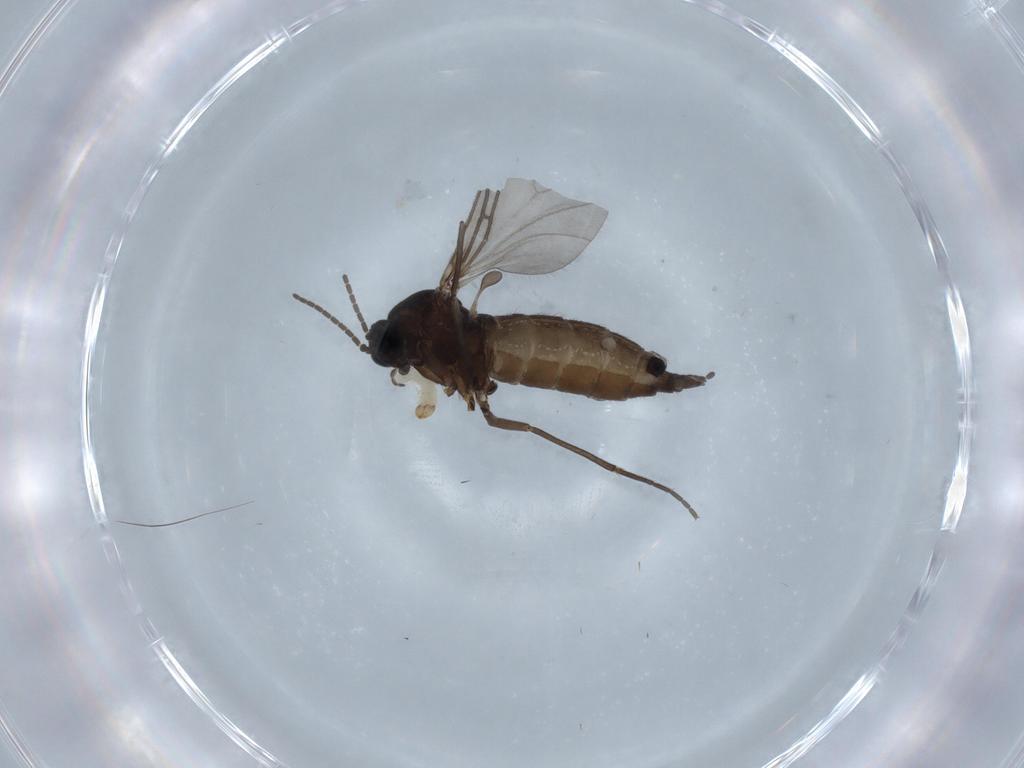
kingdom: Animalia
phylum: Arthropoda
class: Insecta
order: Diptera
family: Sciaridae
